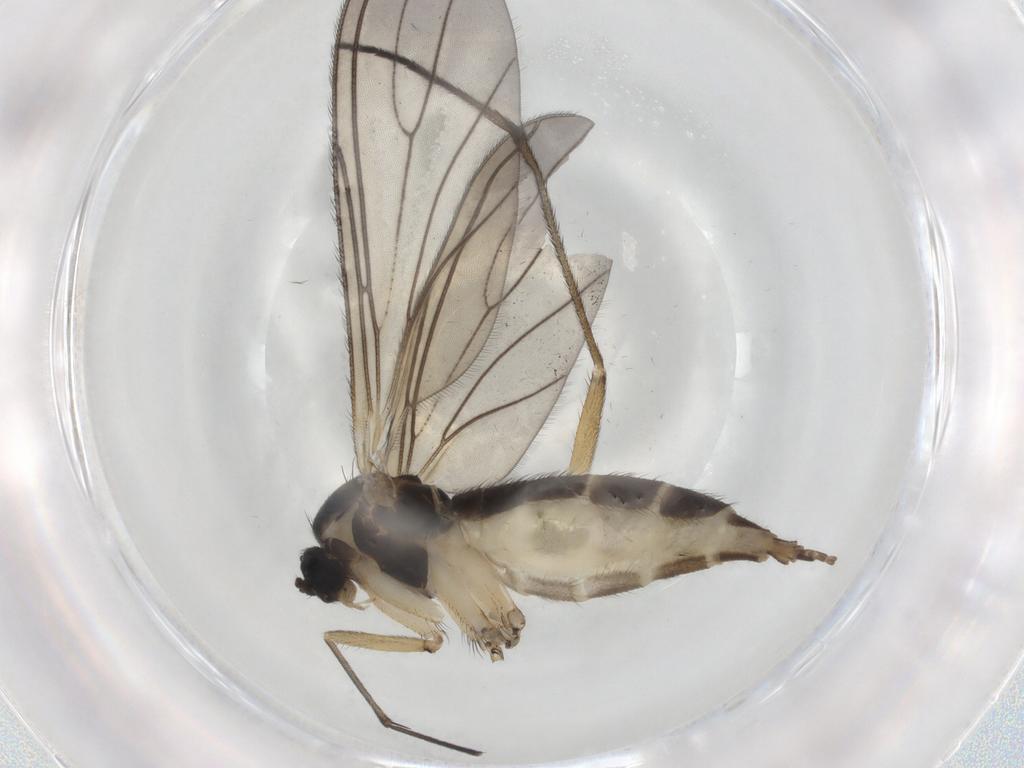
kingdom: Animalia
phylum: Arthropoda
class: Insecta
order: Diptera
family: Sciaridae
